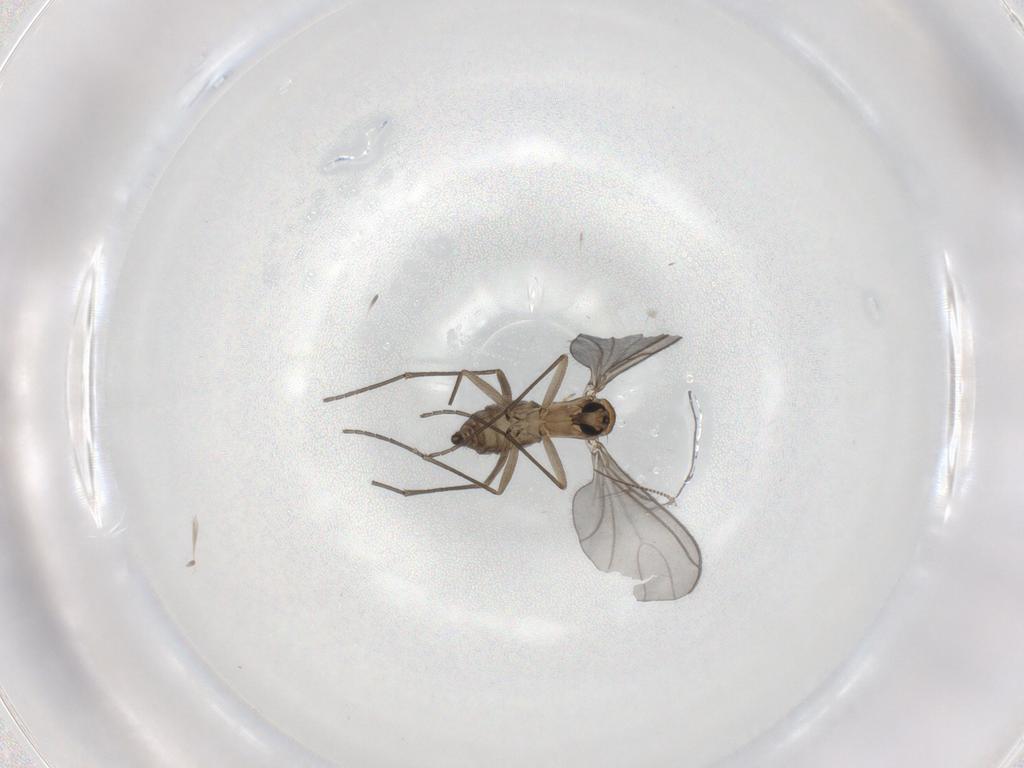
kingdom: Animalia
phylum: Arthropoda
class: Insecta
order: Diptera
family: Sciaridae
